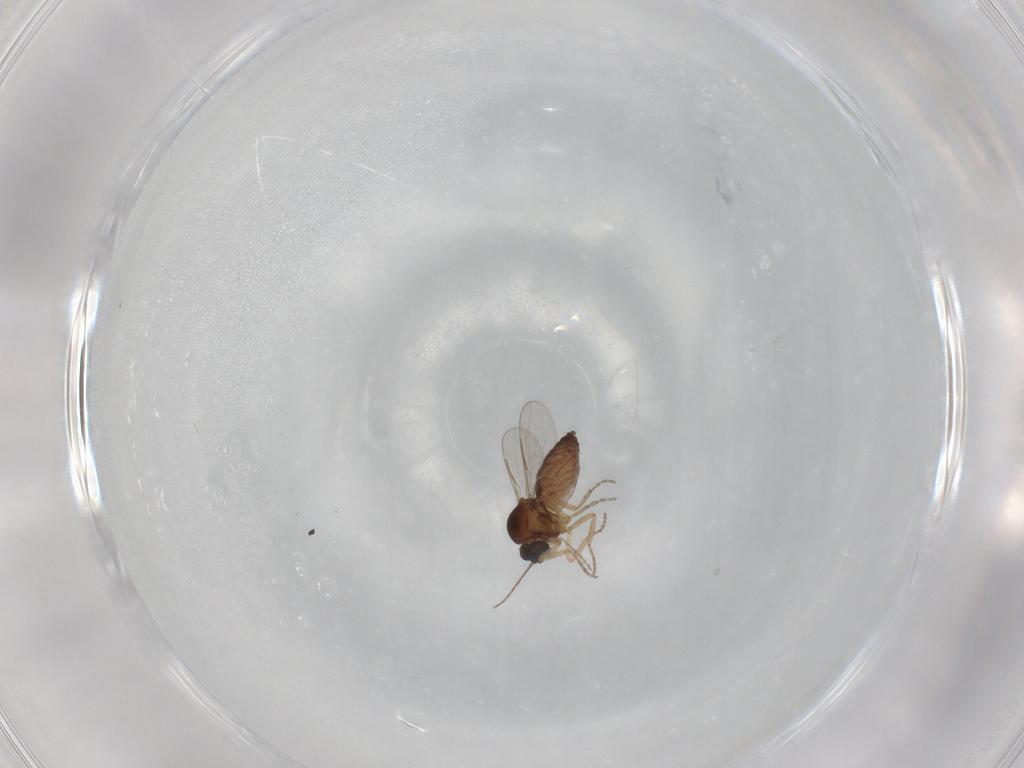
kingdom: Animalia
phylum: Arthropoda
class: Insecta
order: Diptera
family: Ceratopogonidae
